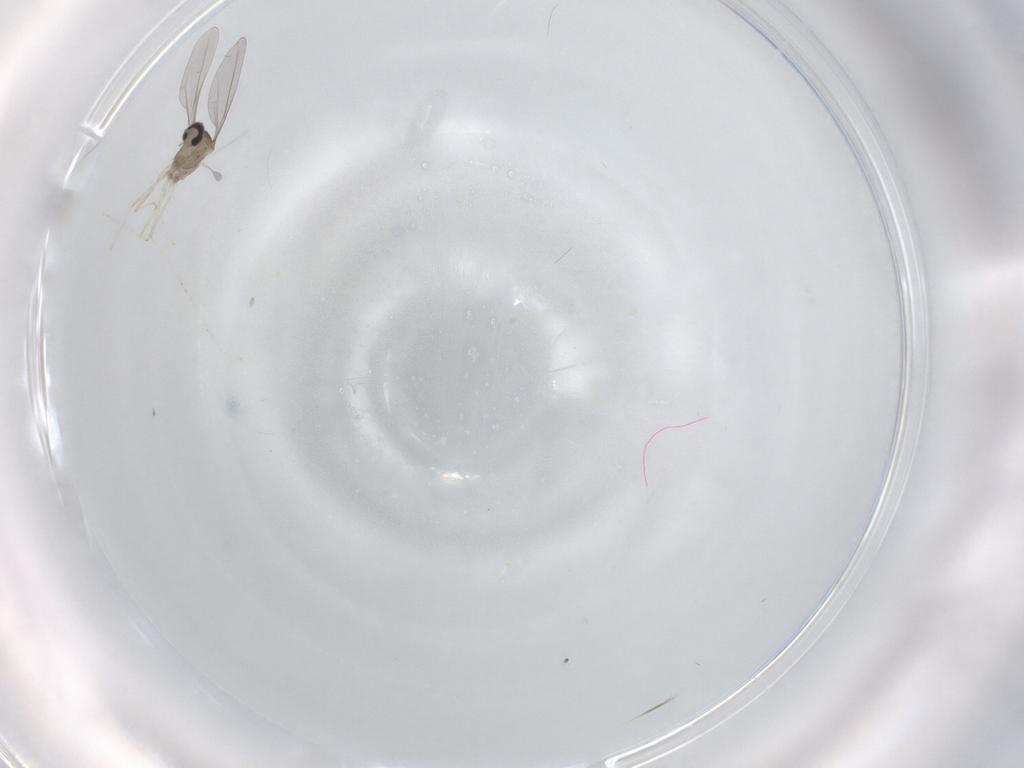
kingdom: Animalia
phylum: Arthropoda
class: Insecta
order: Diptera
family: Cecidomyiidae
